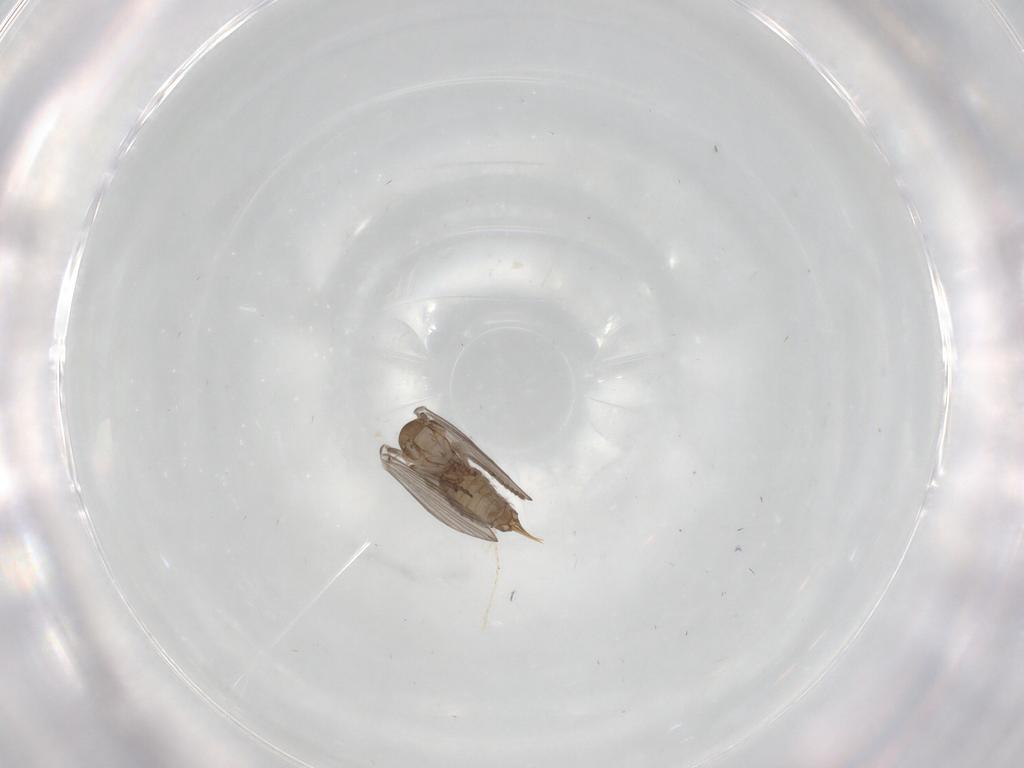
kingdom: Animalia
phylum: Arthropoda
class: Insecta
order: Diptera
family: Psychodidae
